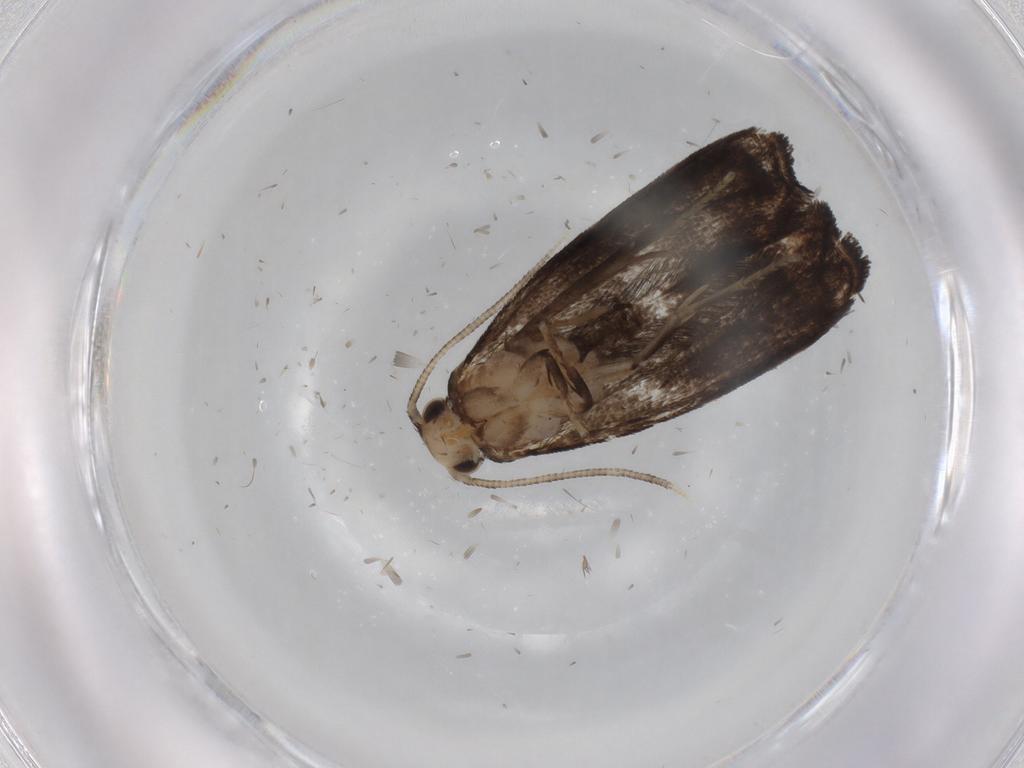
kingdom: Animalia
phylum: Arthropoda
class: Insecta
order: Lepidoptera
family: Dryadaulidae
